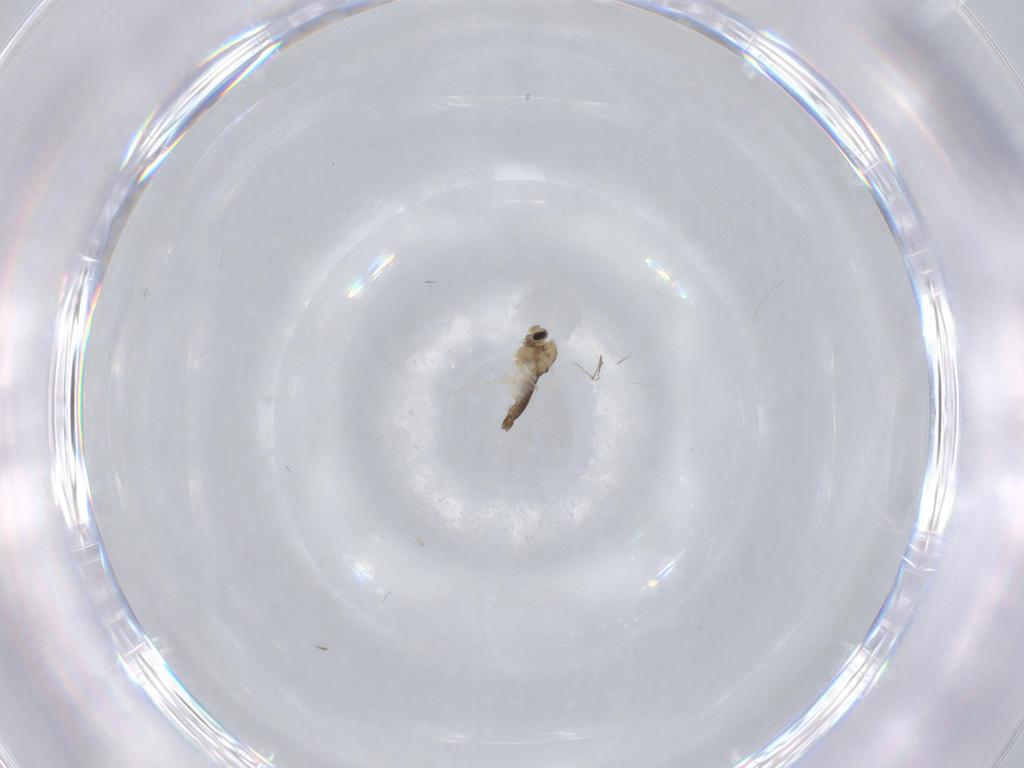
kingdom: Animalia
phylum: Arthropoda
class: Insecta
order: Diptera
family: Chironomidae
